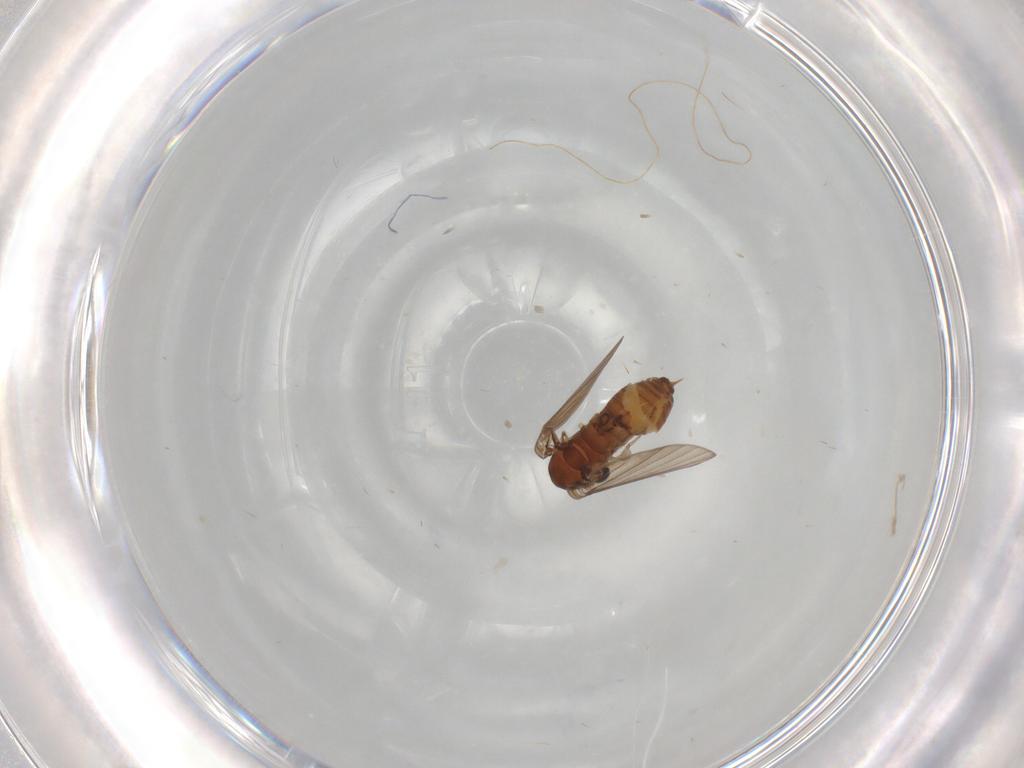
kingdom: Animalia
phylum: Arthropoda
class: Insecta
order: Diptera
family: Psychodidae
